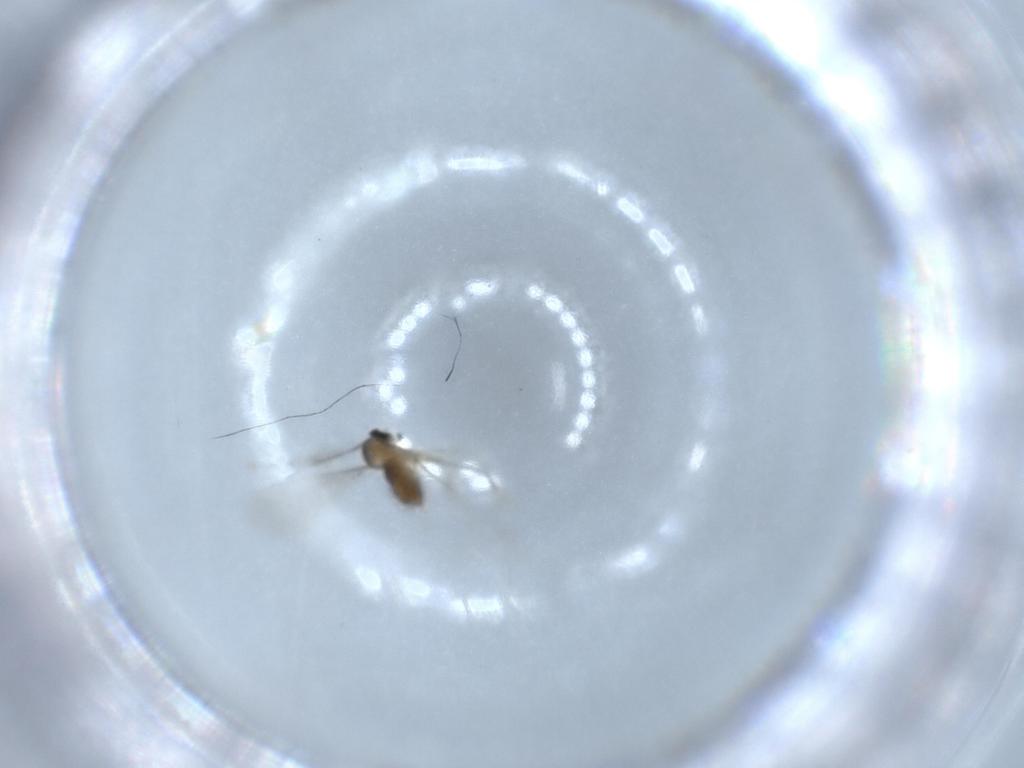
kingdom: Animalia
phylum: Arthropoda
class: Insecta
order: Diptera
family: Cecidomyiidae
